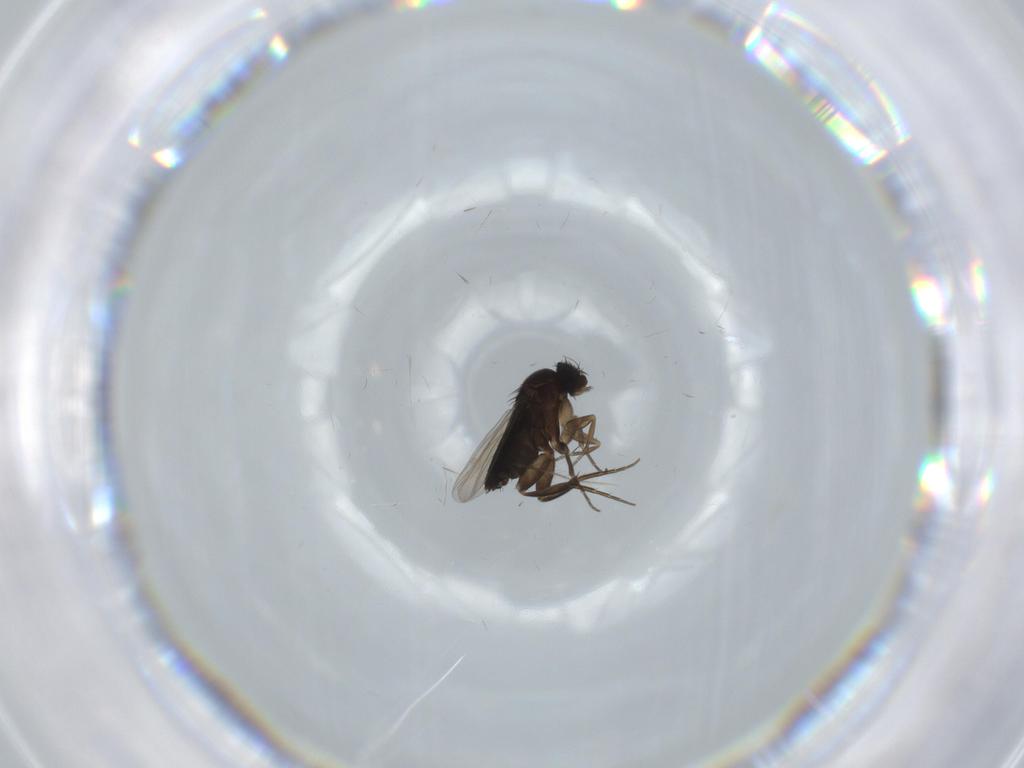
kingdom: Animalia
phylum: Arthropoda
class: Insecta
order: Diptera
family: Phoridae
